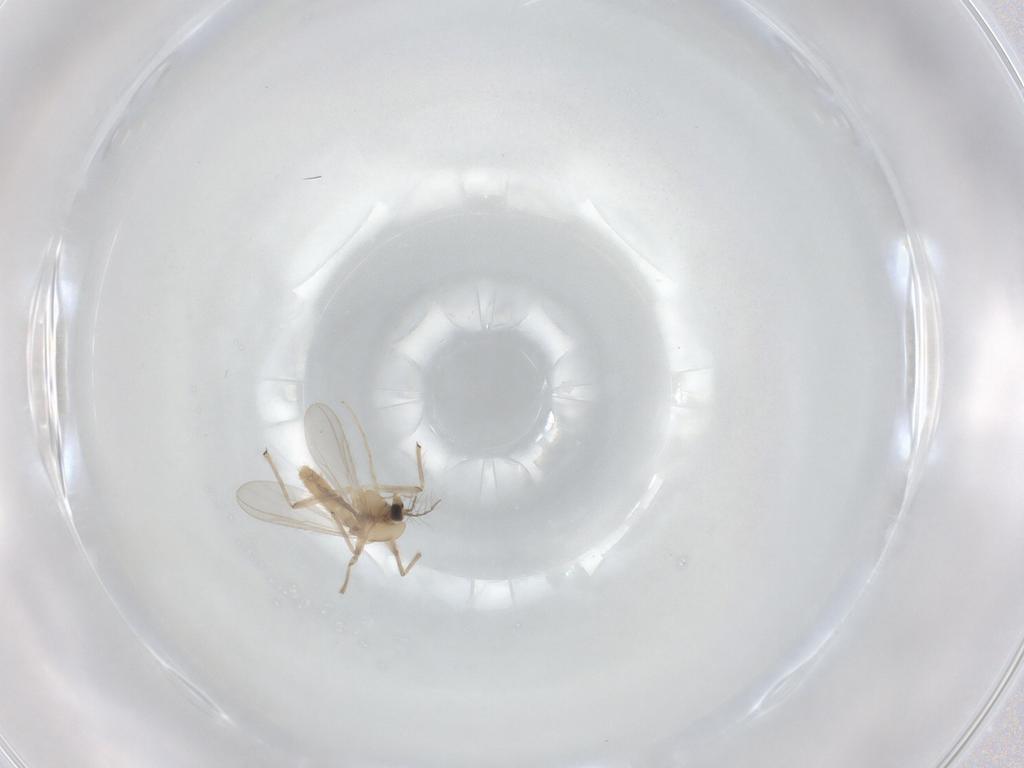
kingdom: Animalia
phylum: Arthropoda
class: Insecta
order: Diptera
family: Chironomidae
